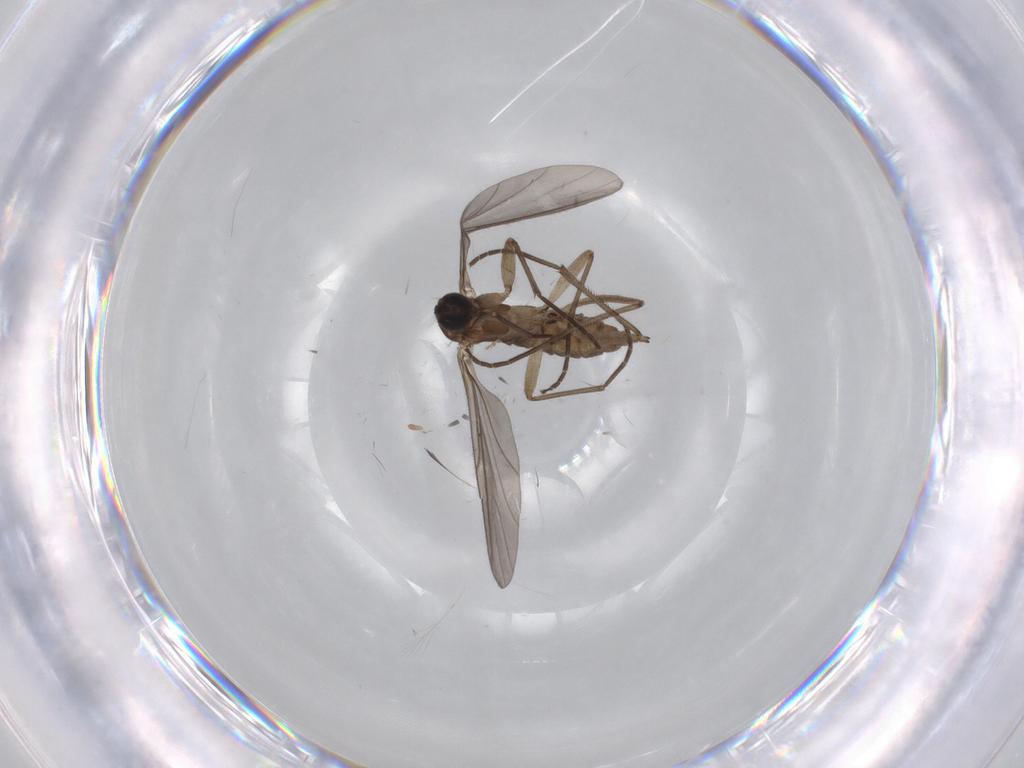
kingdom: Animalia
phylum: Arthropoda
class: Insecta
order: Diptera
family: Sciaridae
